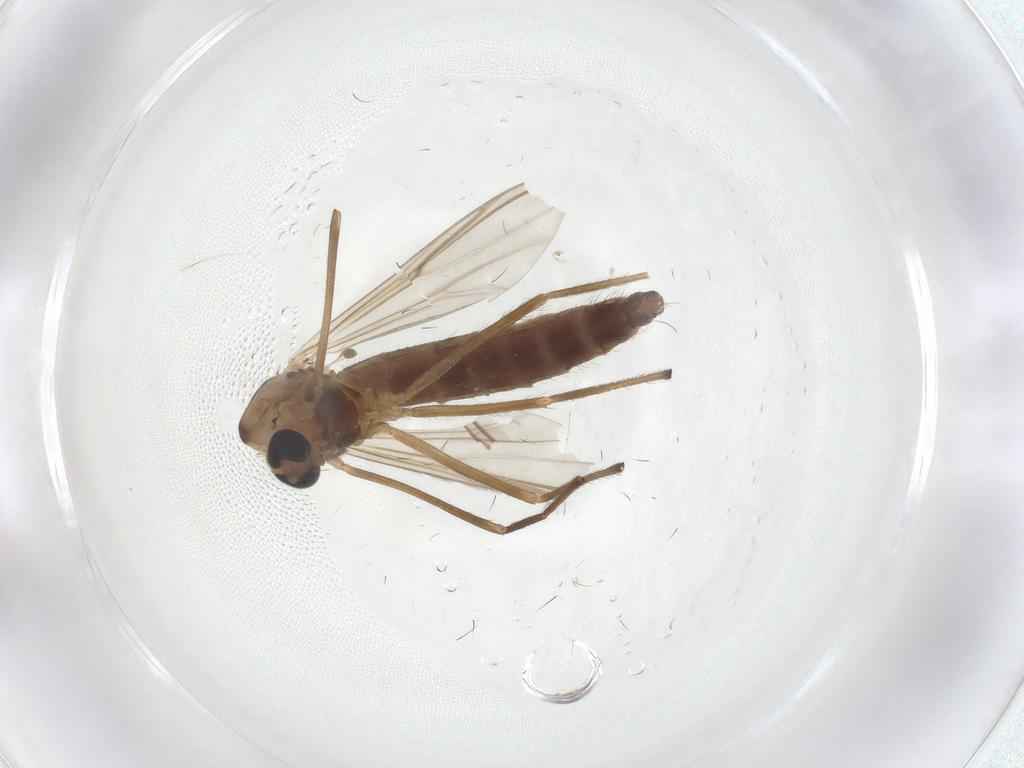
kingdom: Animalia
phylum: Arthropoda
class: Insecta
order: Diptera
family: Chironomidae
